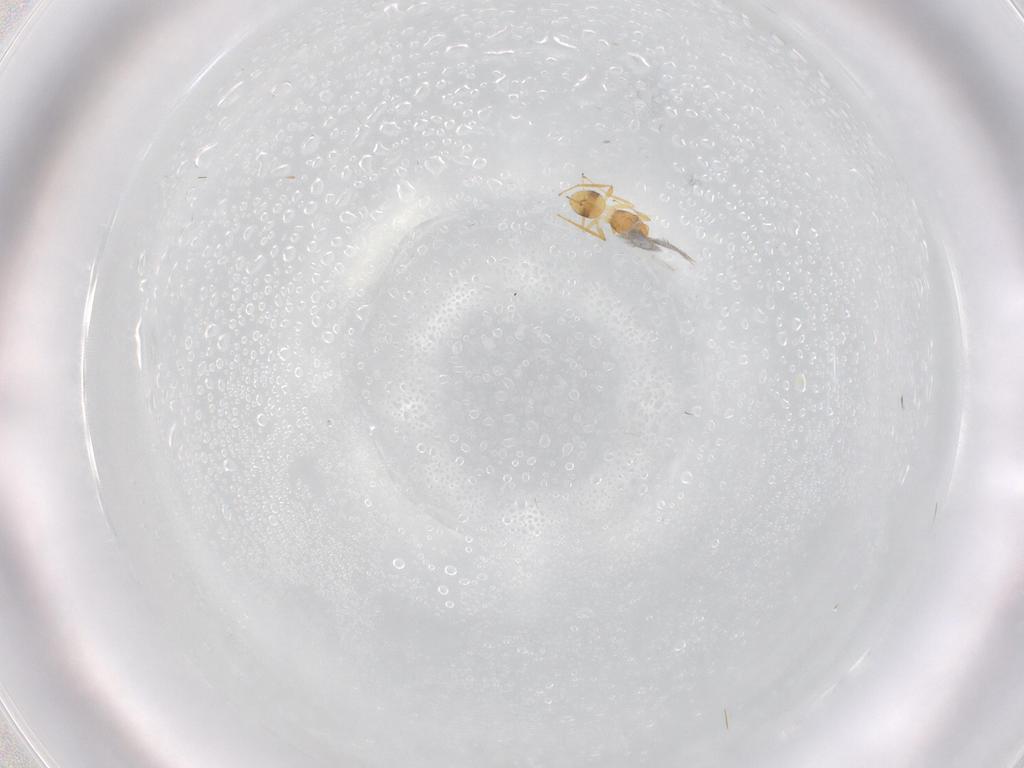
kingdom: Animalia
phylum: Arthropoda
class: Insecta
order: Hymenoptera
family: Mymaridae
